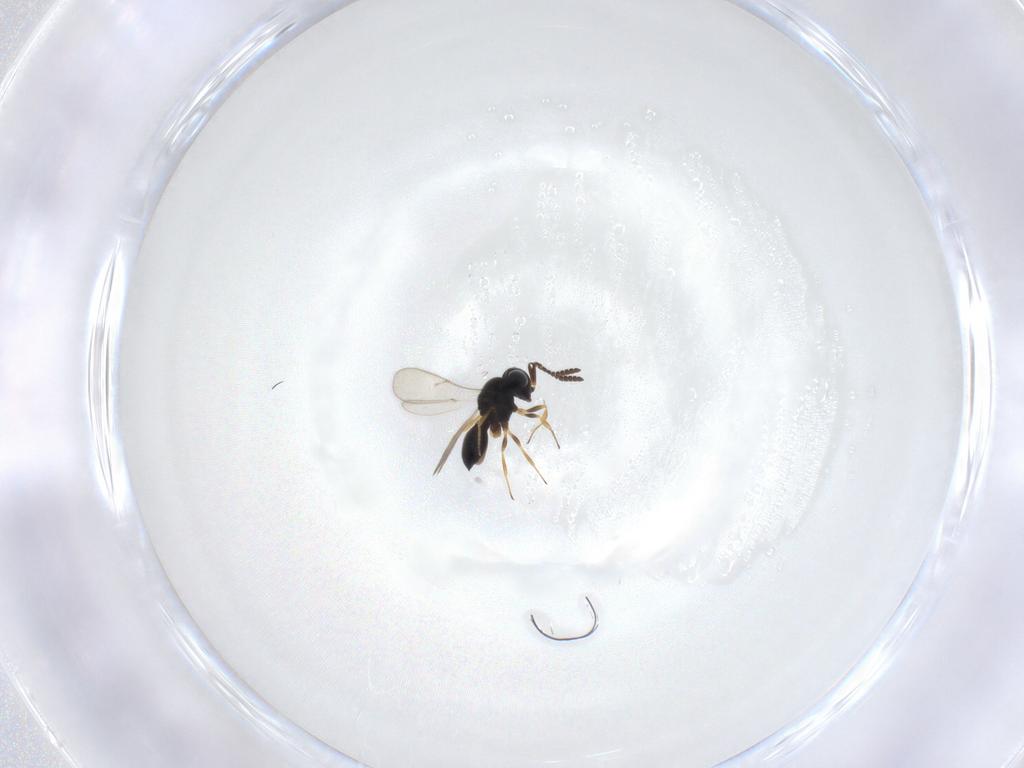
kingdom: Animalia
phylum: Arthropoda
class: Insecta
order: Hymenoptera
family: Scelionidae
